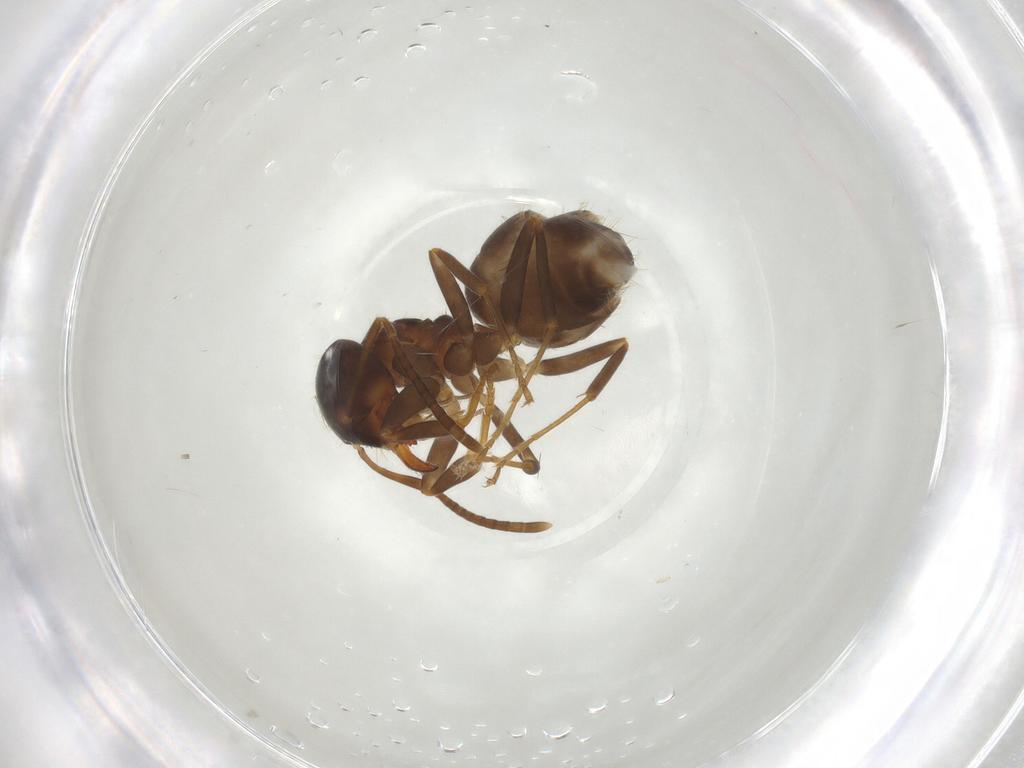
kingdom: Animalia
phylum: Arthropoda
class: Insecta
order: Hymenoptera
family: Formicidae
